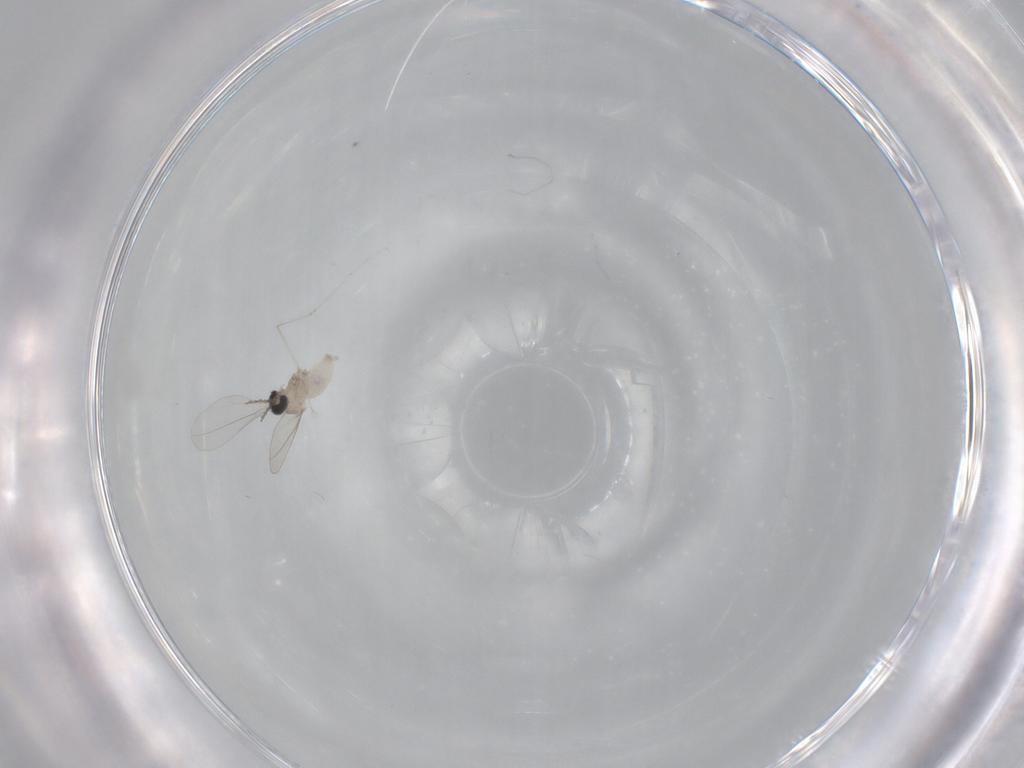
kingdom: Animalia
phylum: Arthropoda
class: Insecta
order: Diptera
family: Cecidomyiidae
